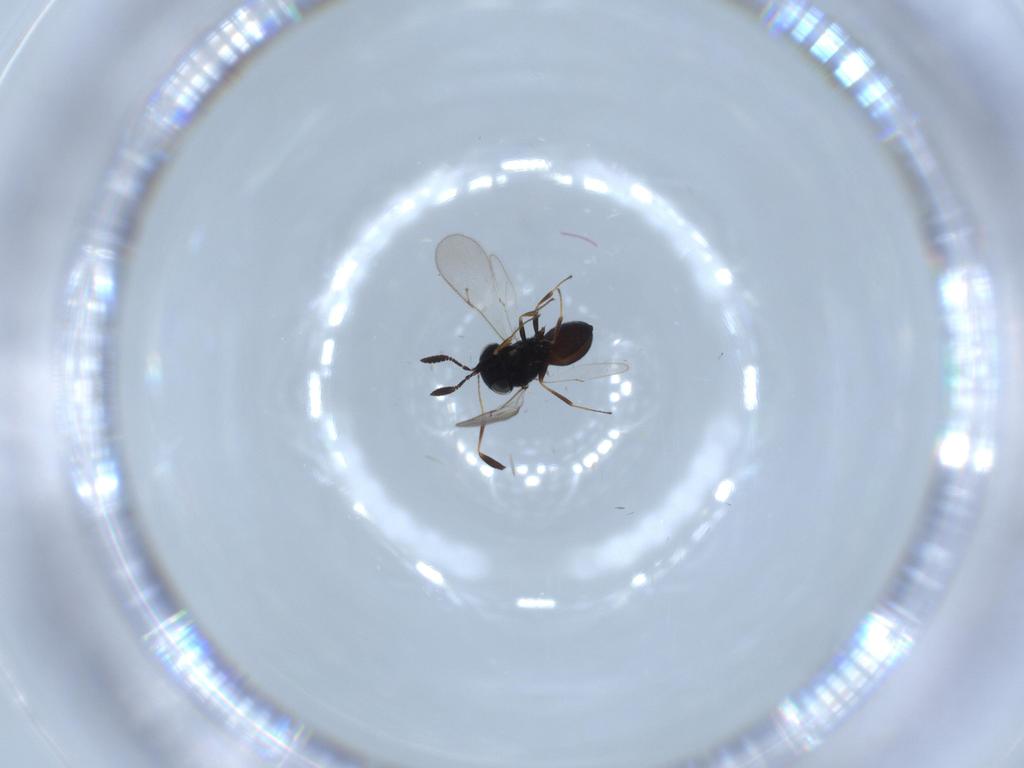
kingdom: Animalia
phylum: Arthropoda
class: Insecta
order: Hymenoptera
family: Scelionidae
